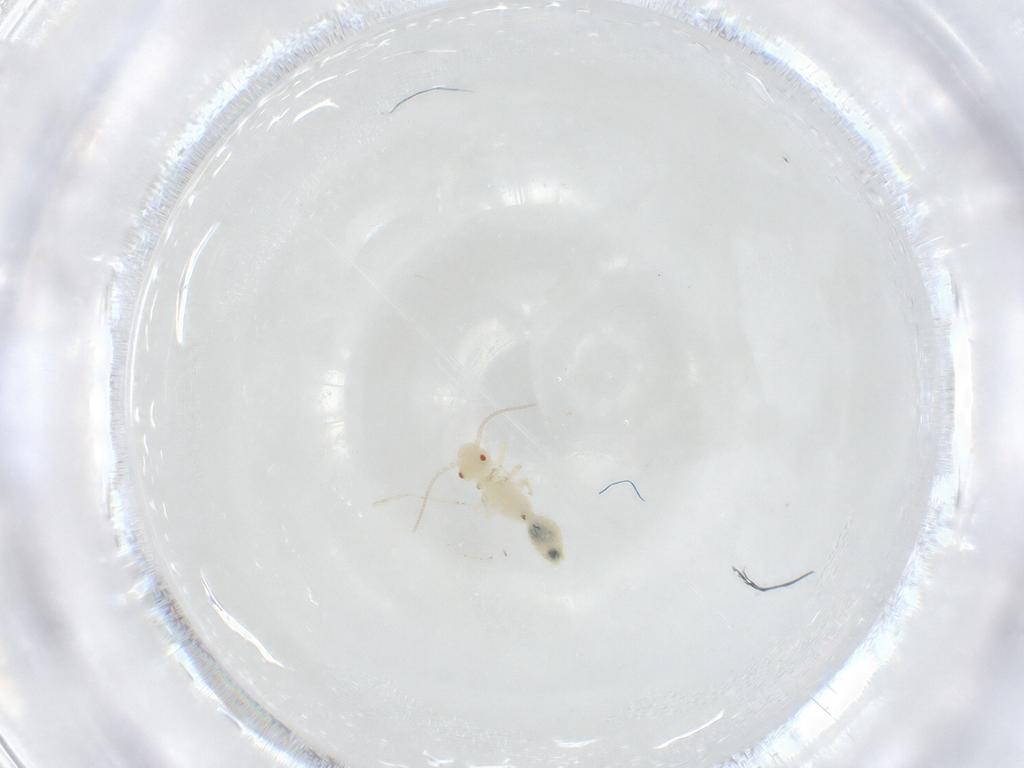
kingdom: Animalia
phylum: Arthropoda
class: Insecta
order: Psocodea
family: Caeciliusidae
